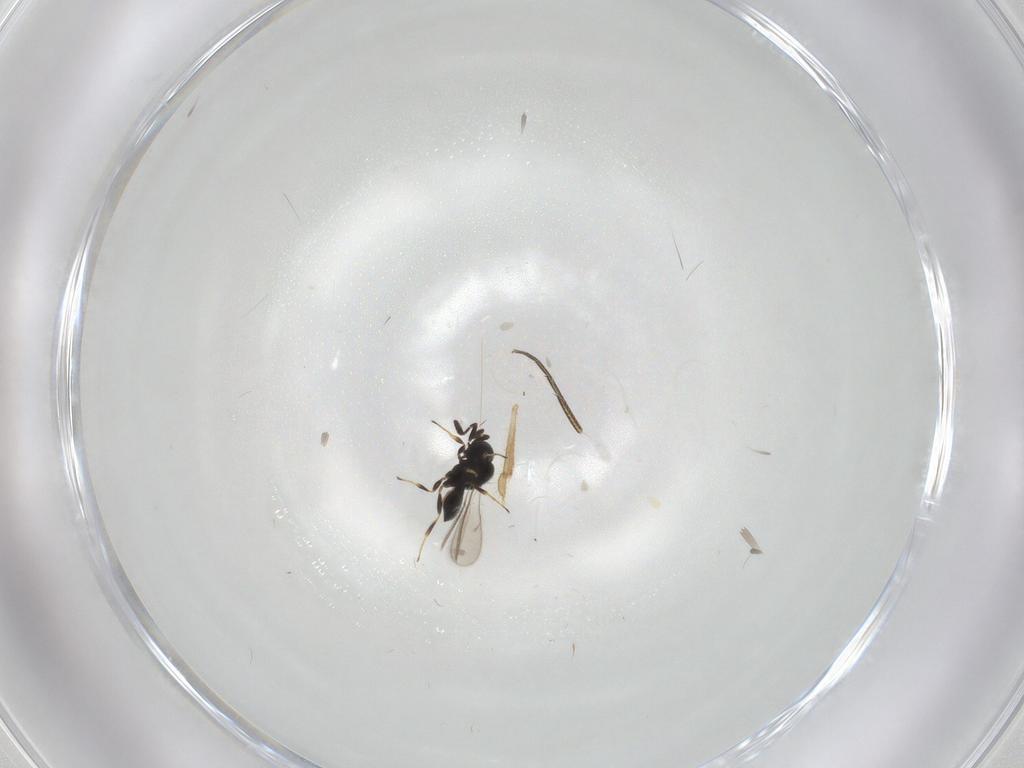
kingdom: Animalia
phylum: Arthropoda
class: Insecta
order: Hymenoptera
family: Scelionidae
